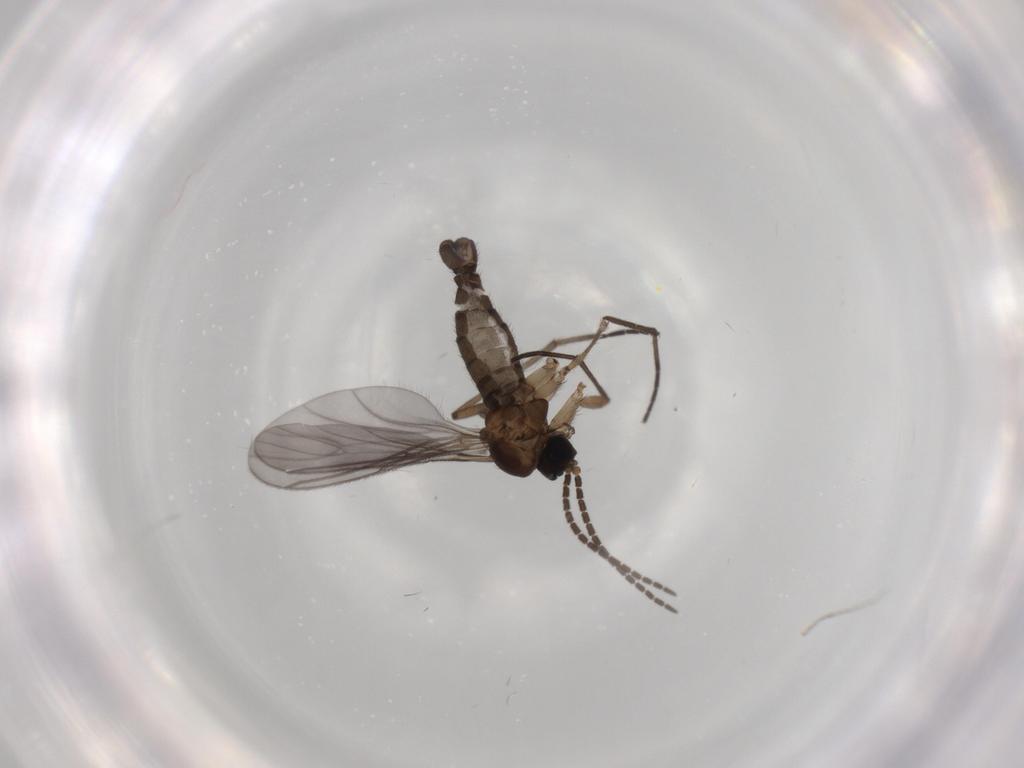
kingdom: Animalia
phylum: Arthropoda
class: Insecta
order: Diptera
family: Sciaridae
